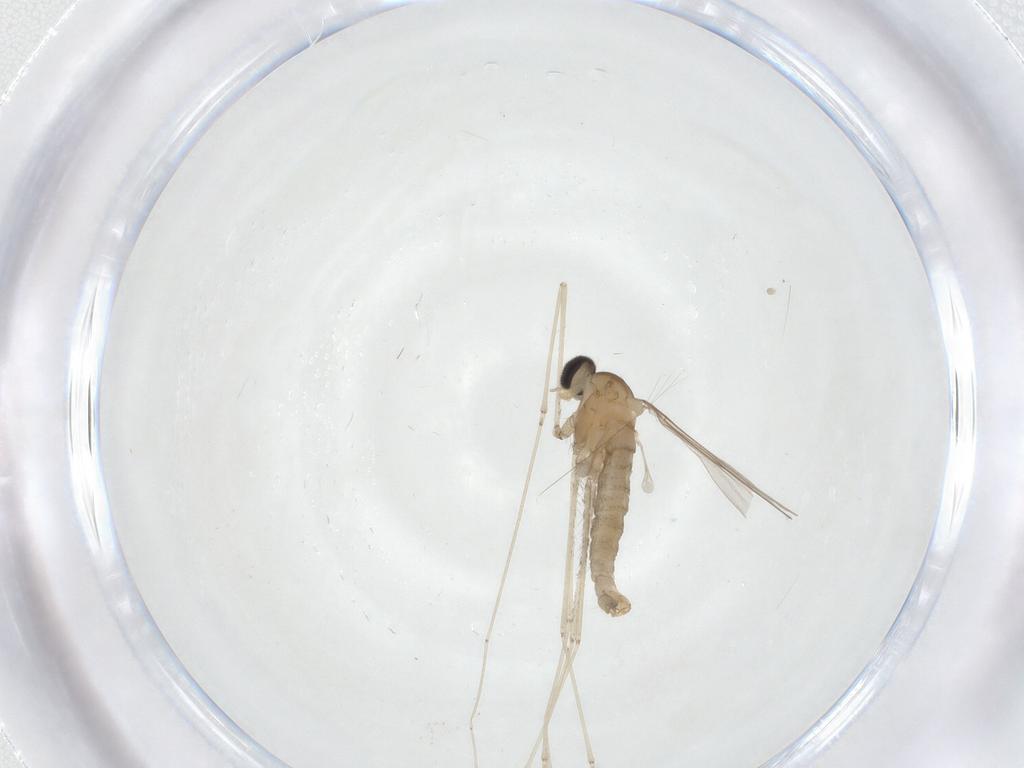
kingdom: Animalia
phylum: Arthropoda
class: Insecta
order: Diptera
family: Cecidomyiidae
